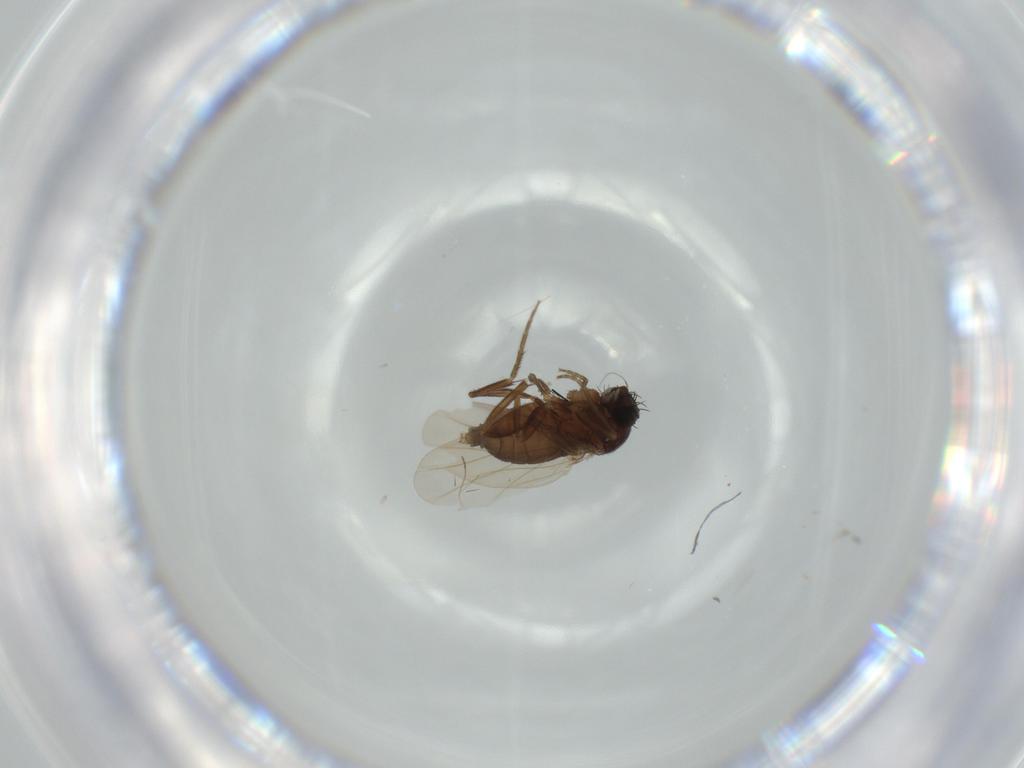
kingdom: Animalia
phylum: Arthropoda
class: Insecta
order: Diptera
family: Phoridae
